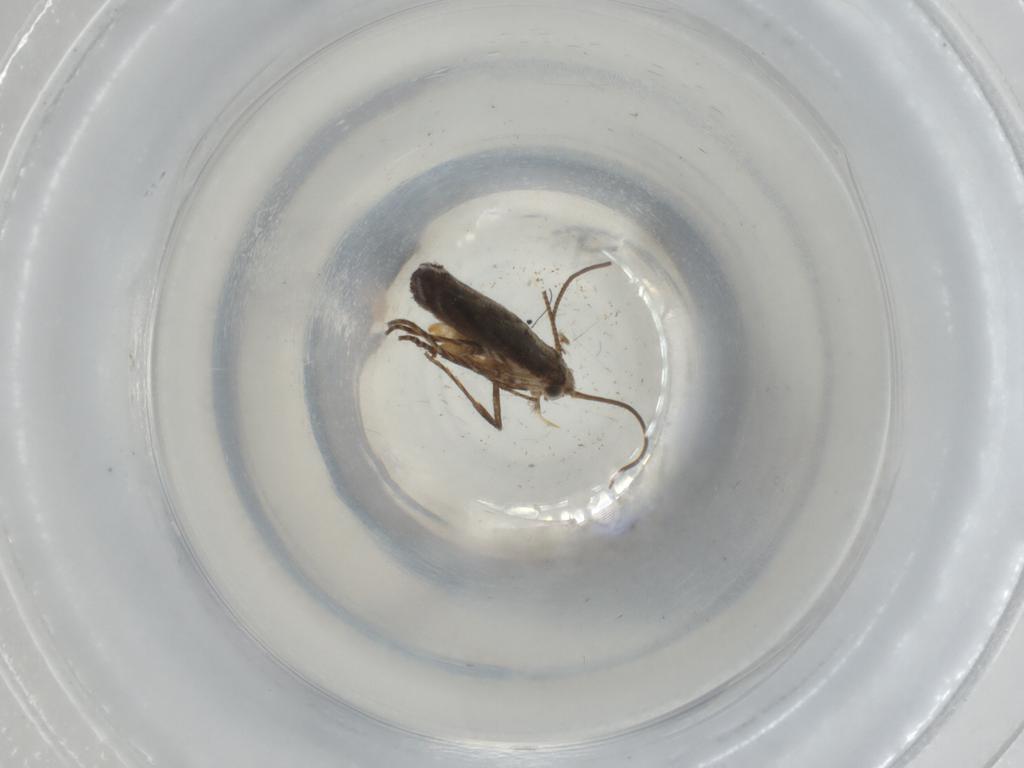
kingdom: Animalia
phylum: Arthropoda
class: Insecta
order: Lepidoptera
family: Gracillariidae
